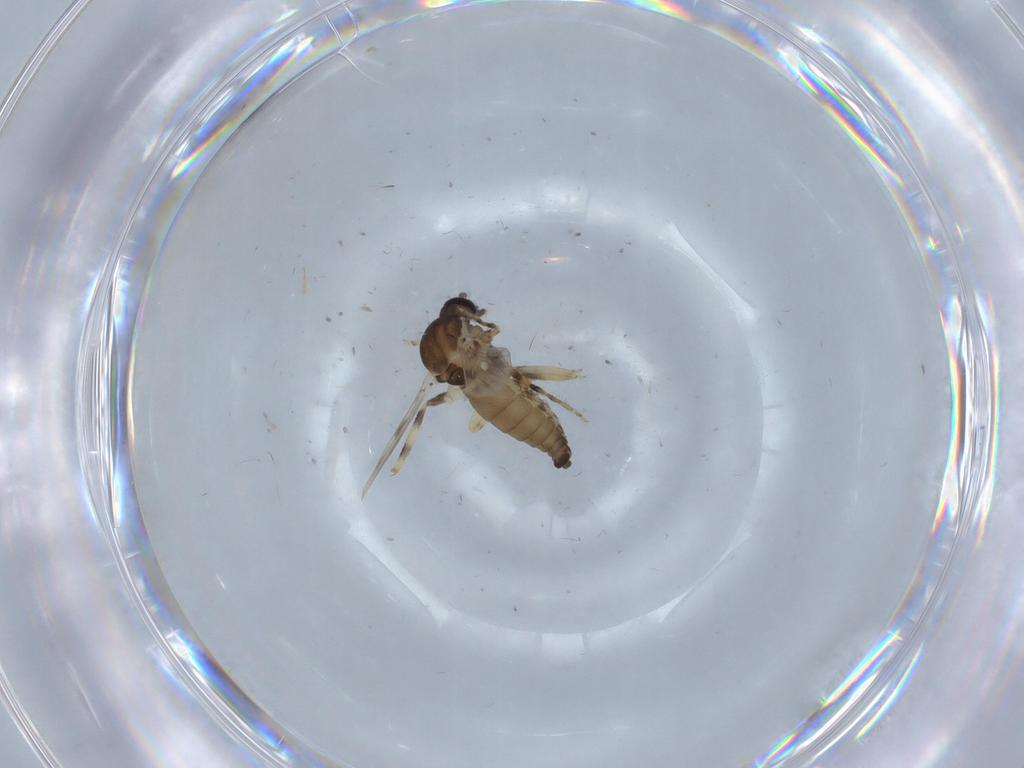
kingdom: Animalia
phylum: Arthropoda
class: Insecta
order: Diptera
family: Ceratopogonidae
